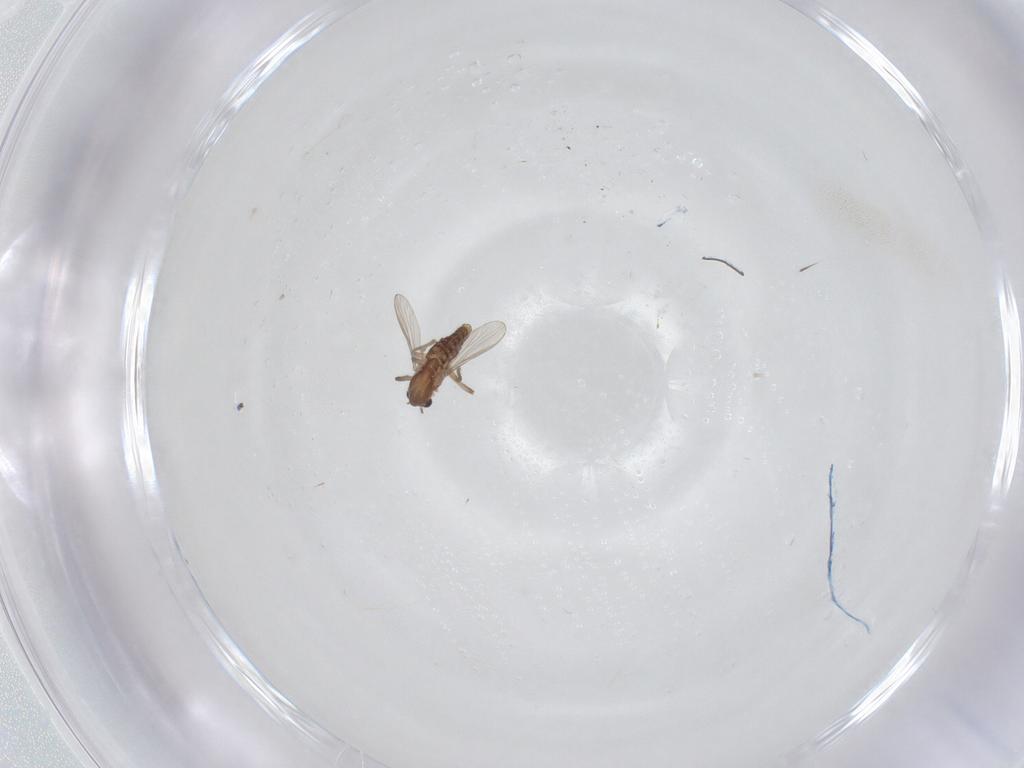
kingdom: Animalia
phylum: Arthropoda
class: Insecta
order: Diptera
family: Chironomidae
